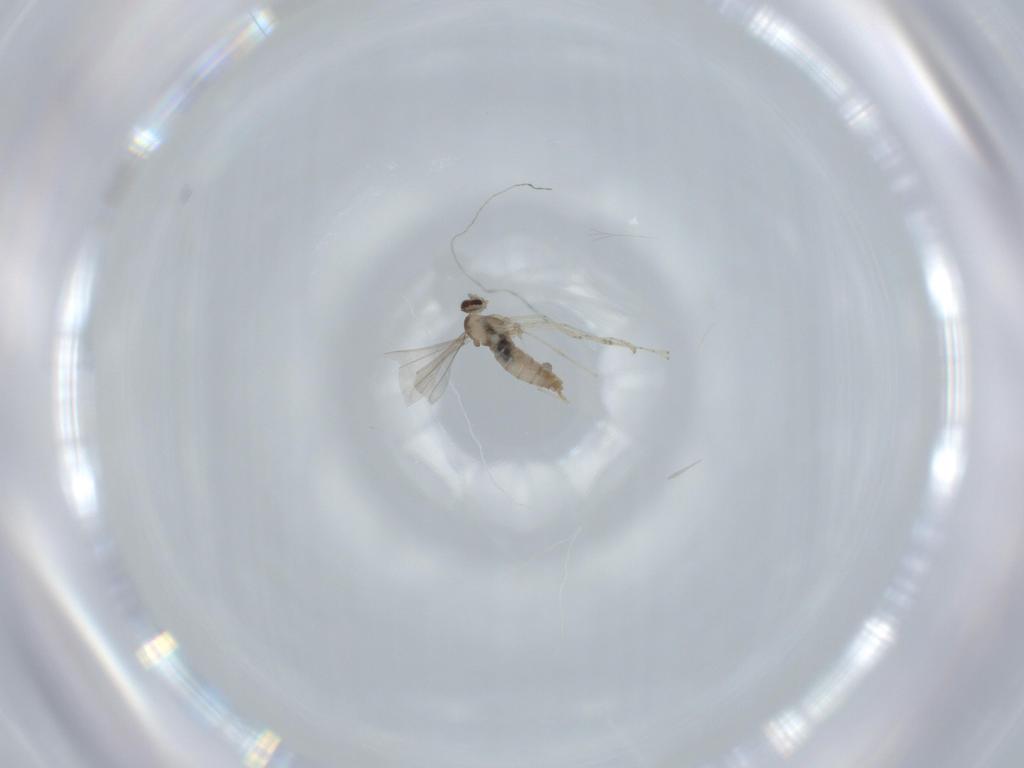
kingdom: Animalia
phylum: Arthropoda
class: Insecta
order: Diptera
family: Cecidomyiidae
